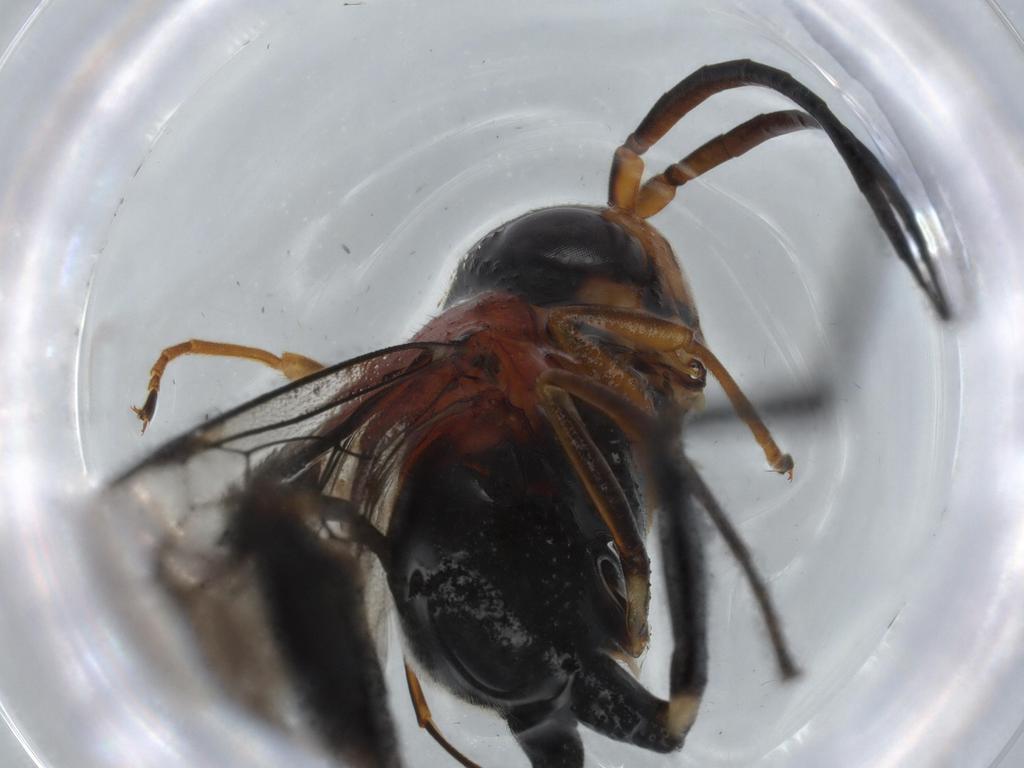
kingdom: Animalia
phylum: Arthropoda
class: Insecta
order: Hymenoptera
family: Evaniidae
